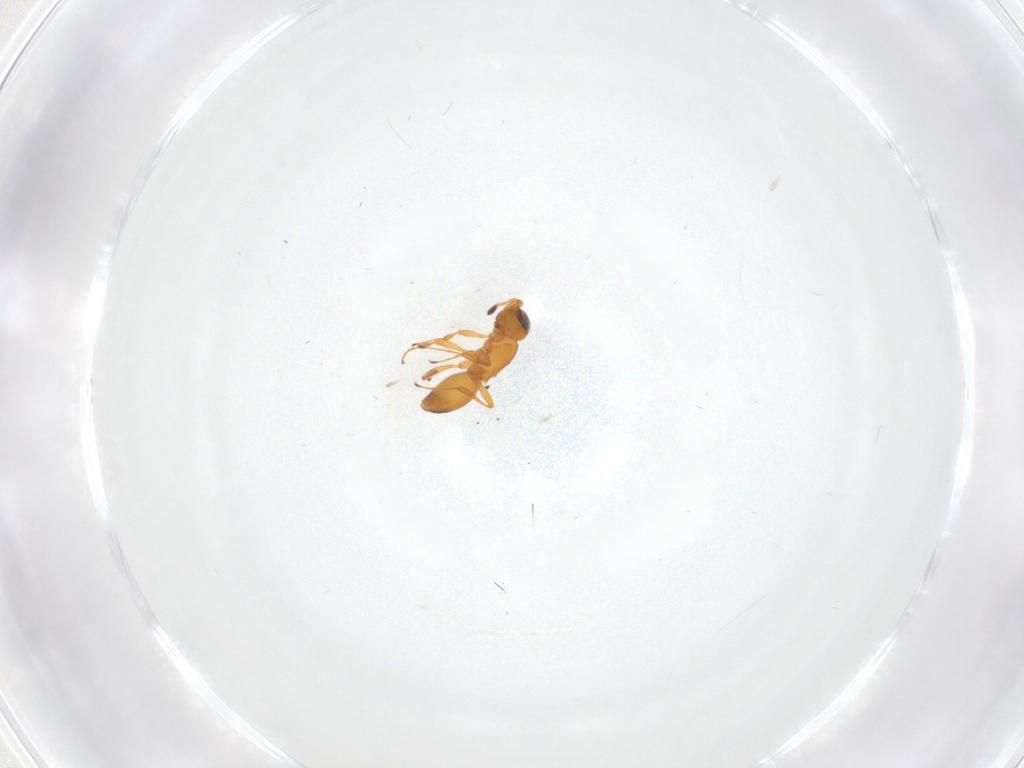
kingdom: Animalia
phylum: Arthropoda
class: Insecta
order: Hymenoptera
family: Platygastridae
